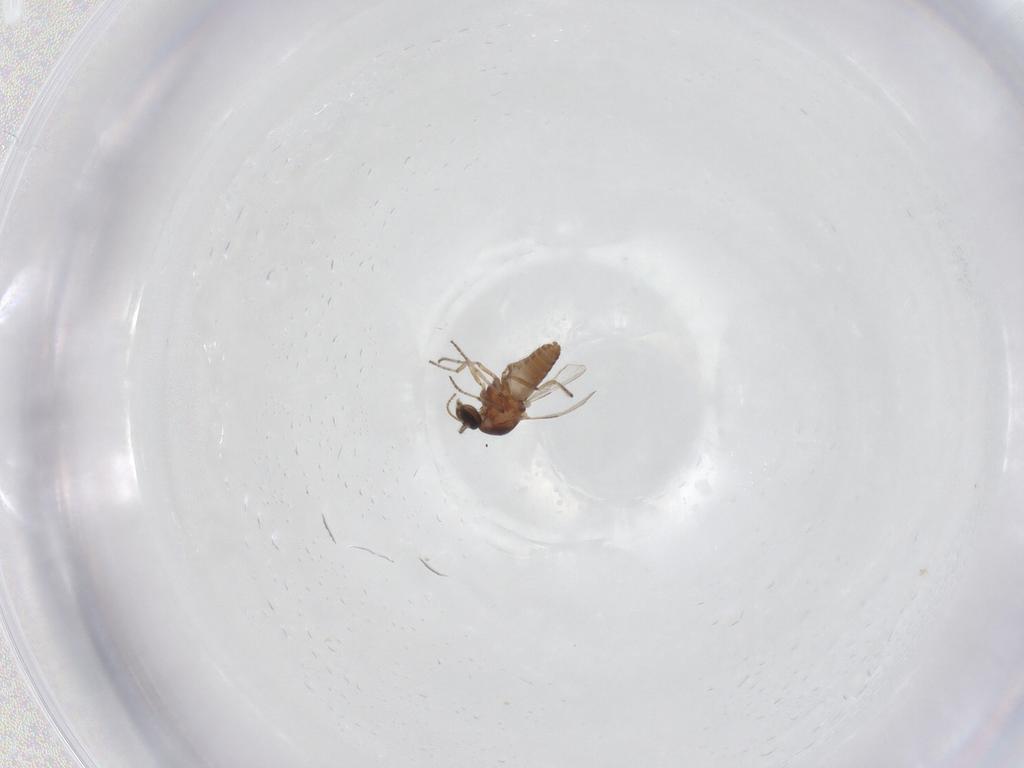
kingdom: Animalia
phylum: Arthropoda
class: Insecta
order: Diptera
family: Ceratopogonidae
